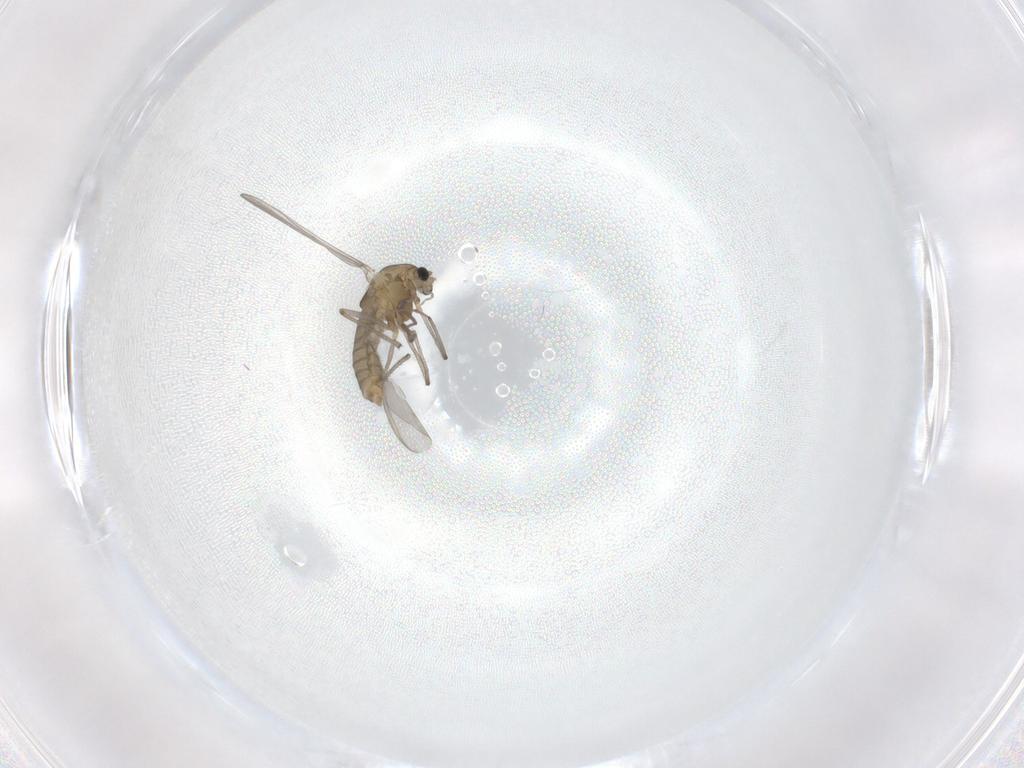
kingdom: Animalia
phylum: Arthropoda
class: Insecta
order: Diptera
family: Chironomidae
